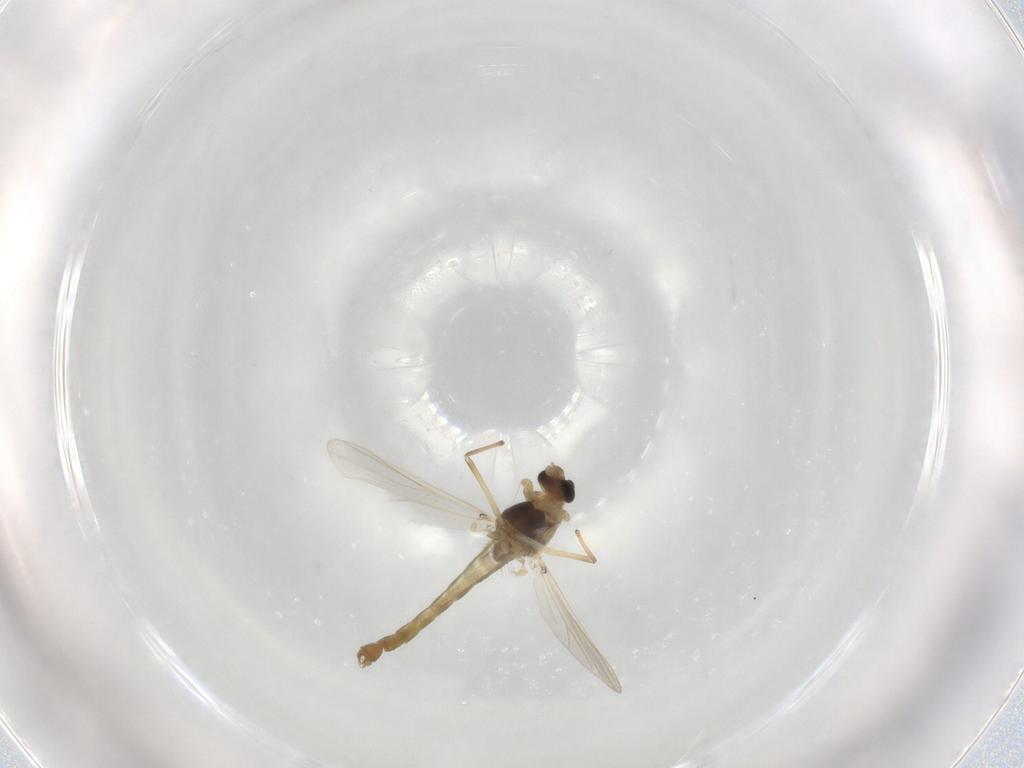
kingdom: Animalia
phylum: Arthropoda
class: Insecta
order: Diptera
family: Chironomidae
